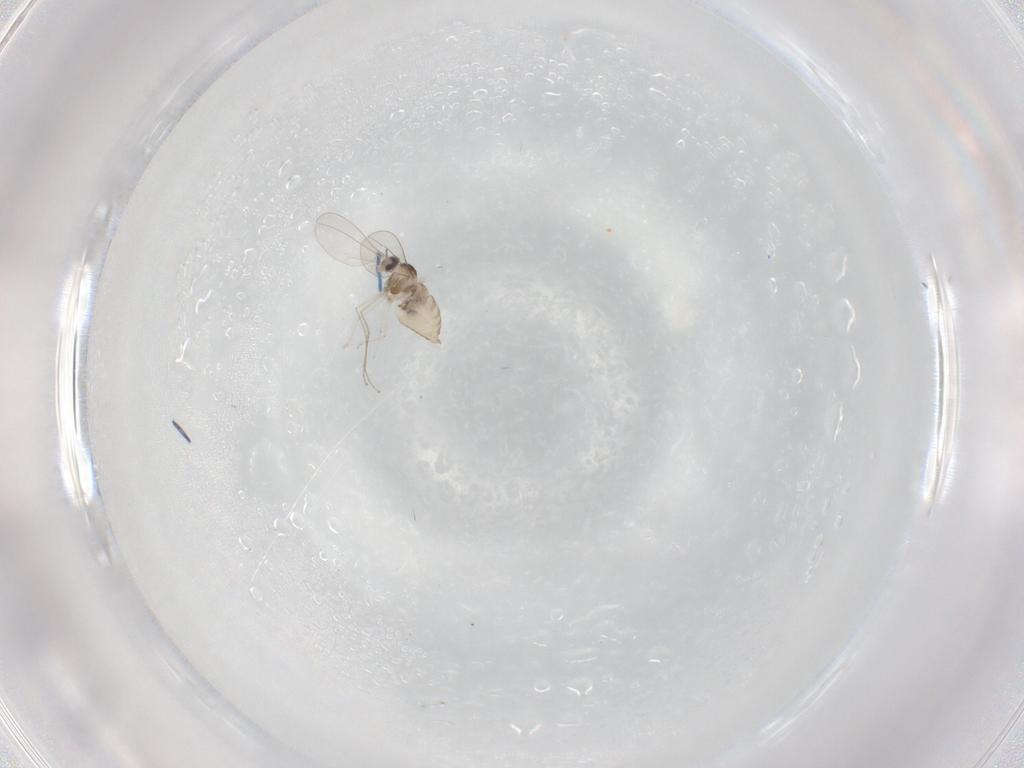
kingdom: Animalia
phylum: Arthropoda
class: Insecta
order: Diptera
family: Cecidomyiidae
